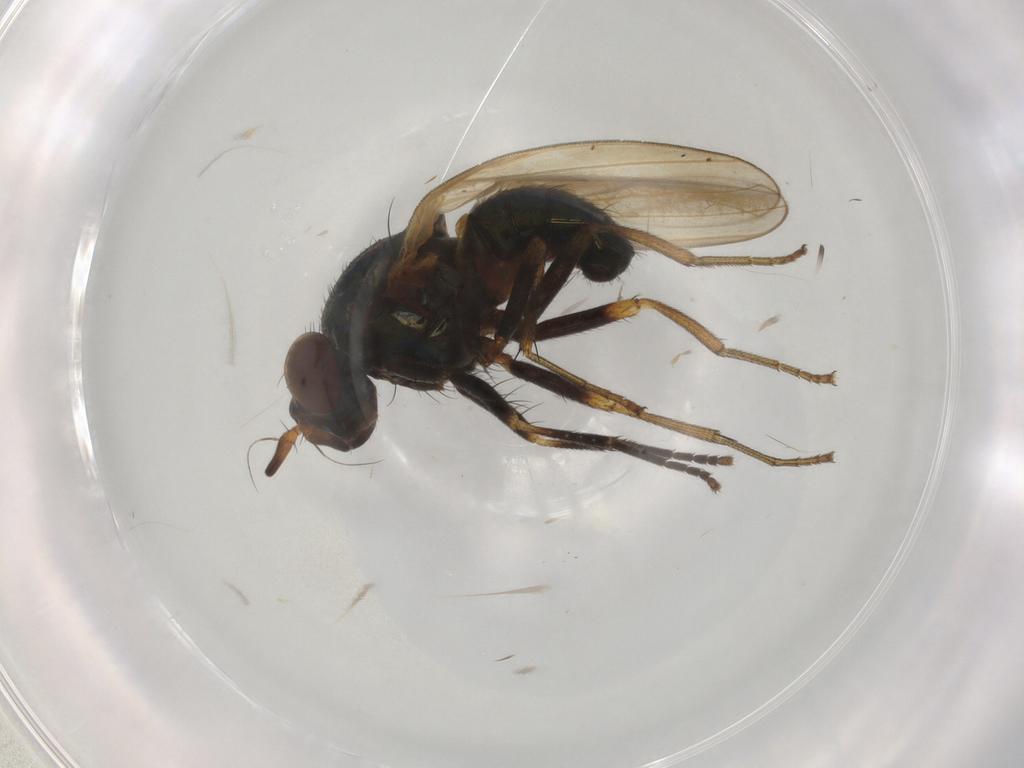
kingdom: Animalia
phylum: Arthropoda
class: Insecta
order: Diptera
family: Lauxaniidae
